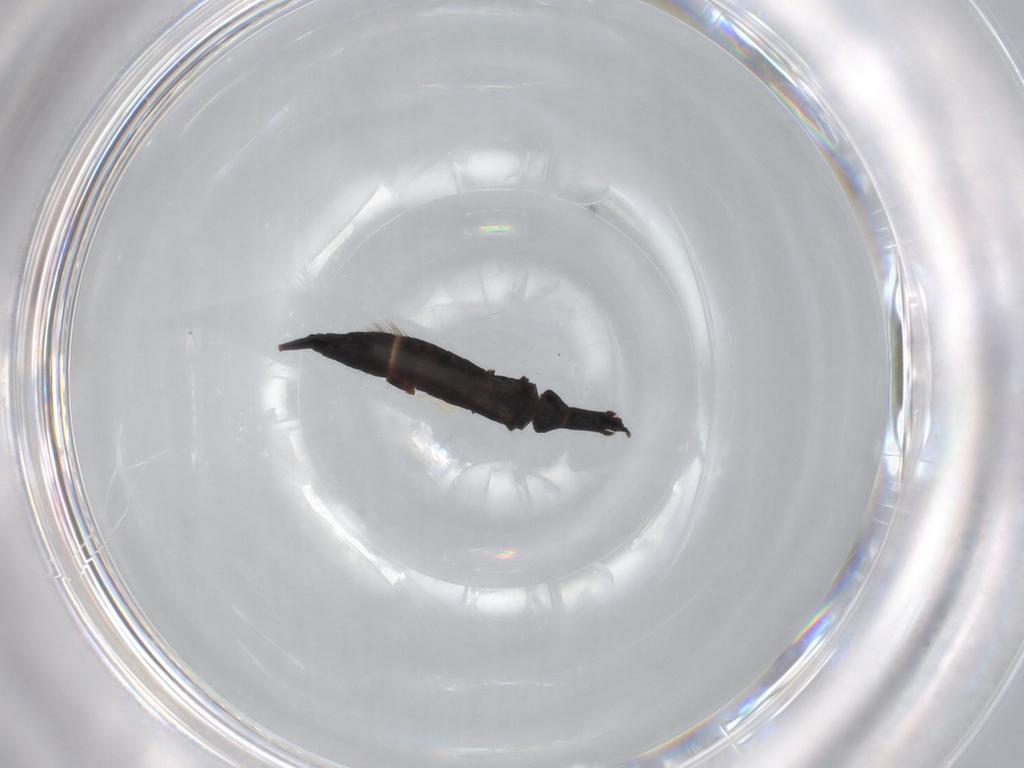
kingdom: Animalia
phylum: Arthropoda
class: Insecta
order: Thysanoptera
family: Phlaeothripidae
